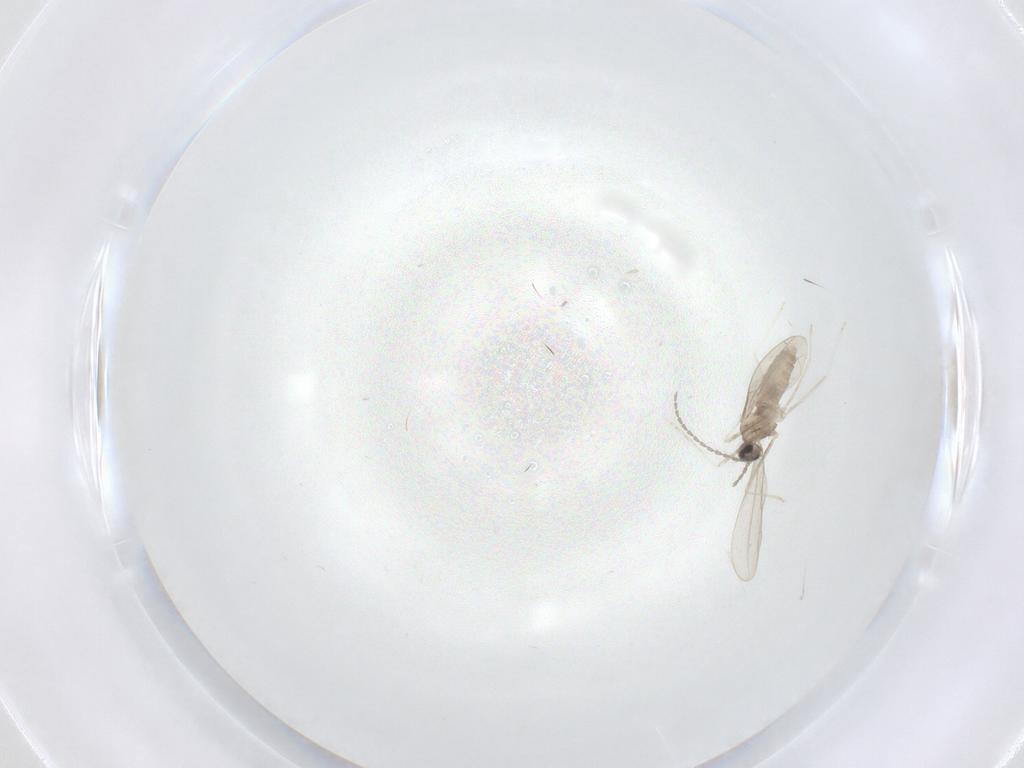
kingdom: Animalia
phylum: Arthropoda
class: Insecta
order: Diptera
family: Cecidomyiidae
